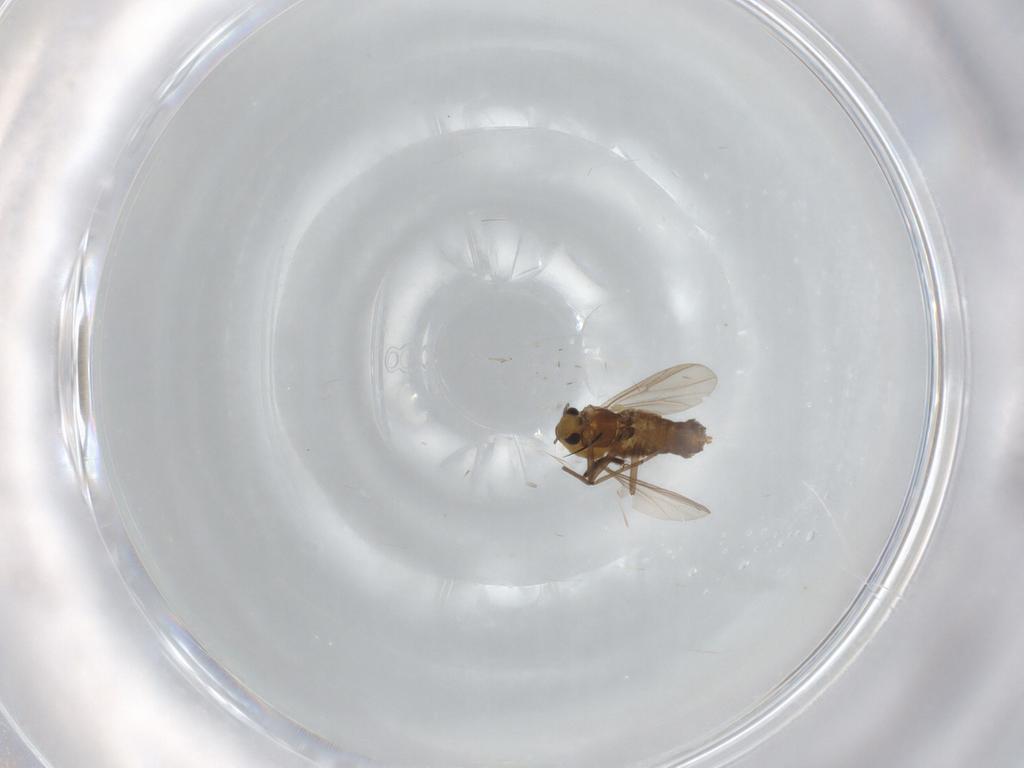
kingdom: Animalia
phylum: Arthropoda
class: Insecta
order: Diptera
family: Chironomidae
